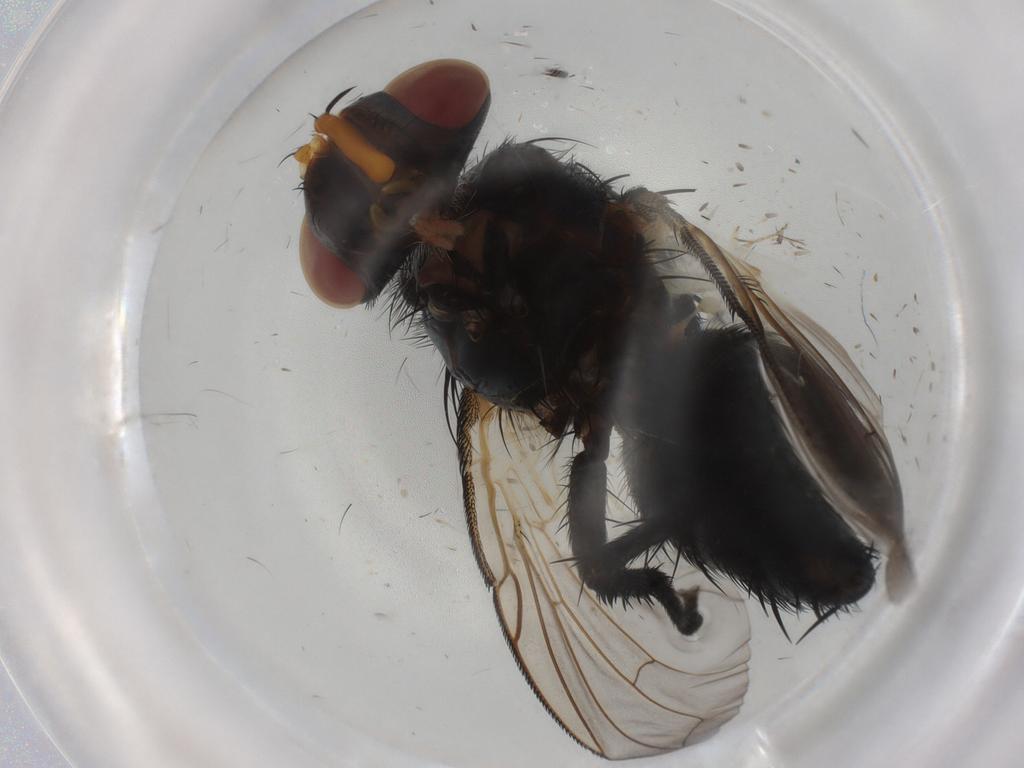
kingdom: Animalia
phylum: Arthropoda
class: Insecta
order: Diptera
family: Tachinidae
